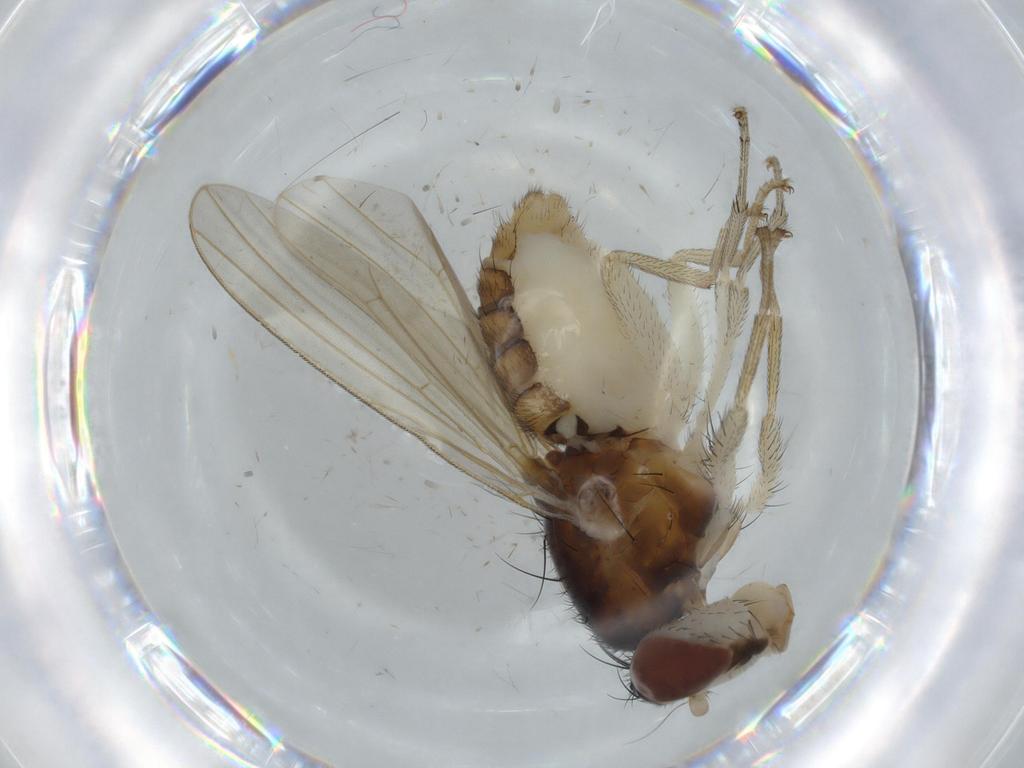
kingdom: Animalia
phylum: Arthropoda
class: Insecta
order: Diptera
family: Lauxaniidae
